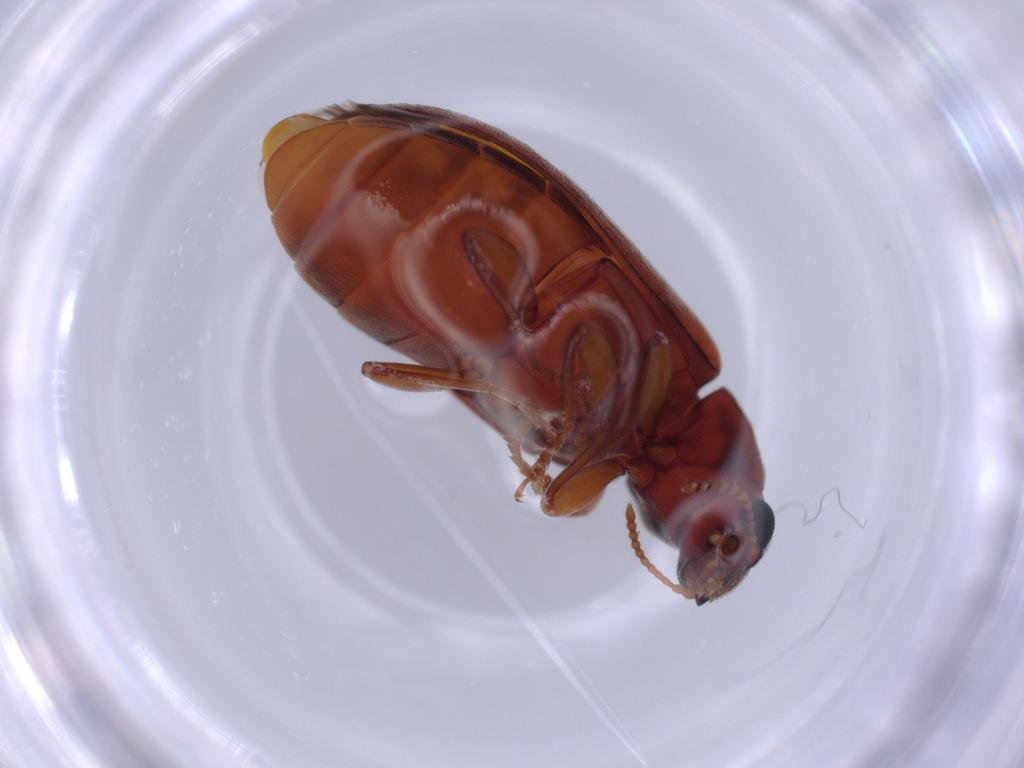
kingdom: Animalia
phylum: Arthropoda
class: Insecta
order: Coleoptera
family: Mycteridae
